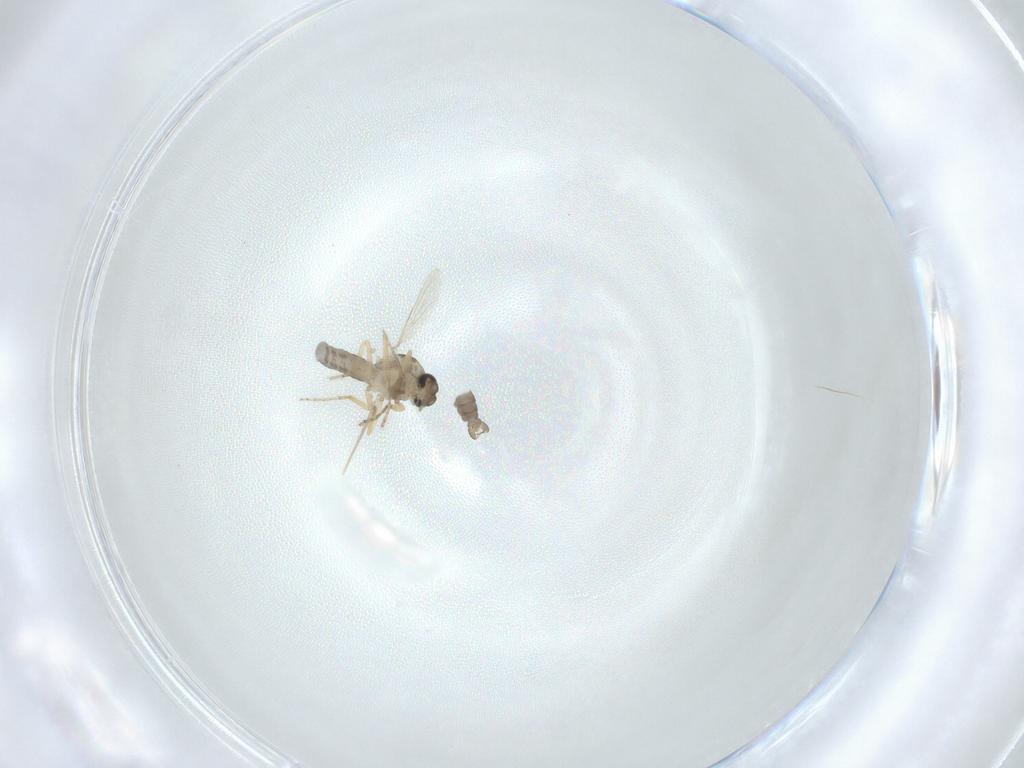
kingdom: Animalia
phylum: Arthropoda
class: Insecta
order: Diptera
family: Ceratopogonidae
